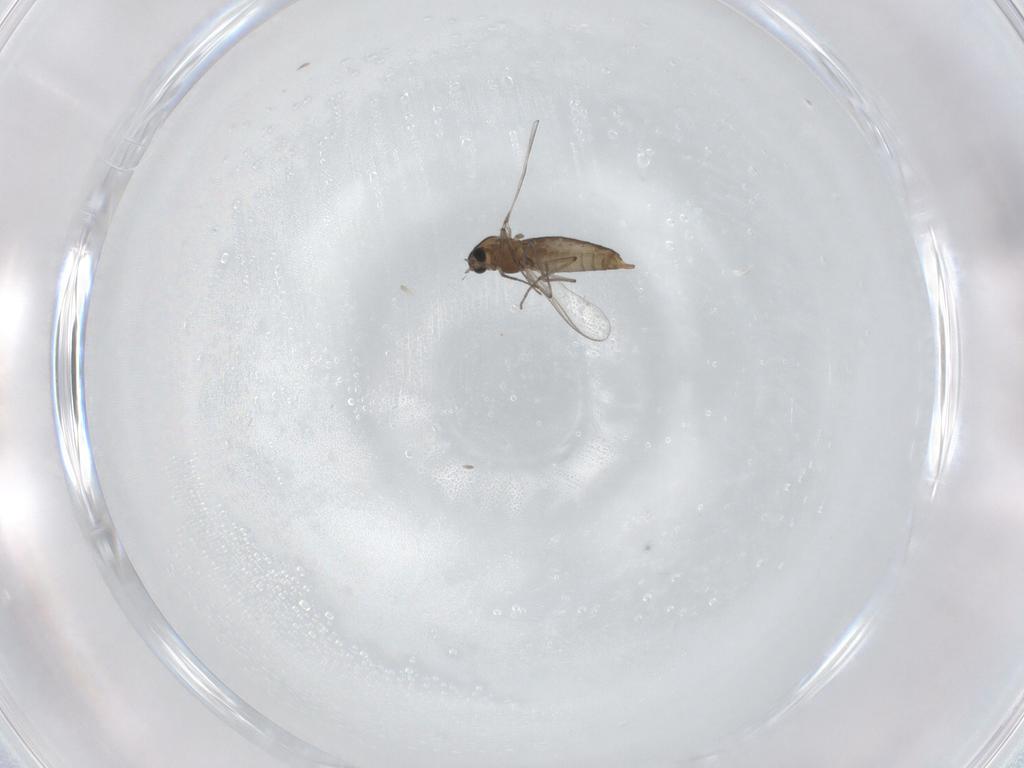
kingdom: Animalia
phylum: Arthropoda
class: Insecta
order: Diptera
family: Chironomidae
